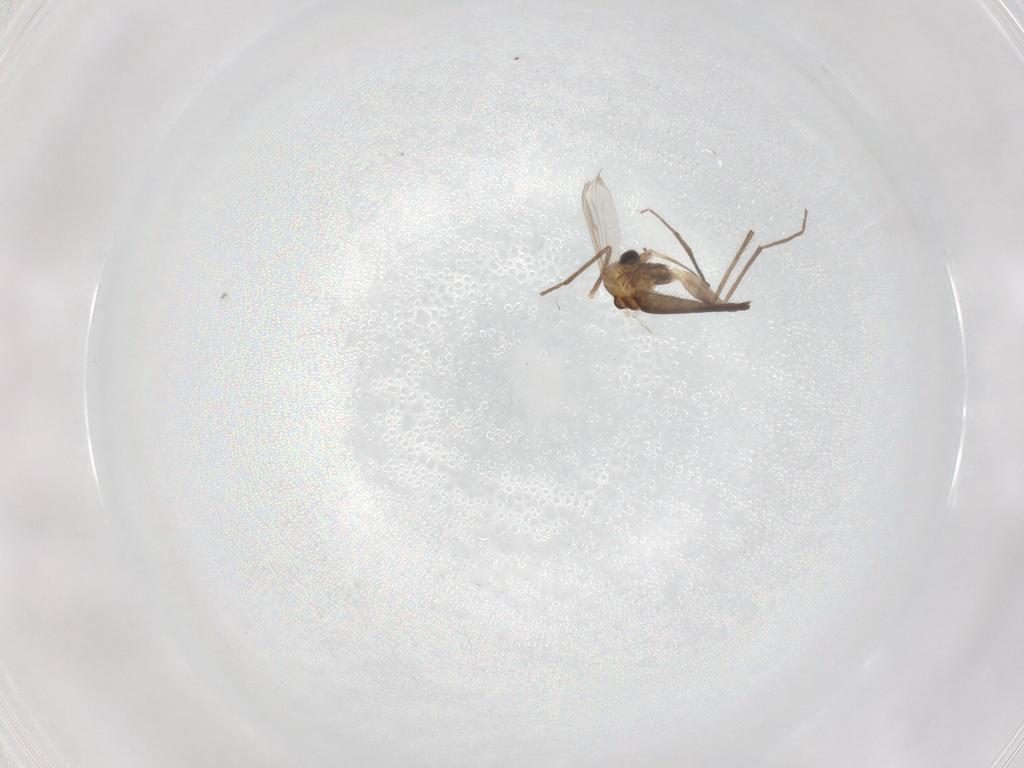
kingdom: Animalia
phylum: Arthropoda
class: Insecta
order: Diptera
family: Chironomidae
